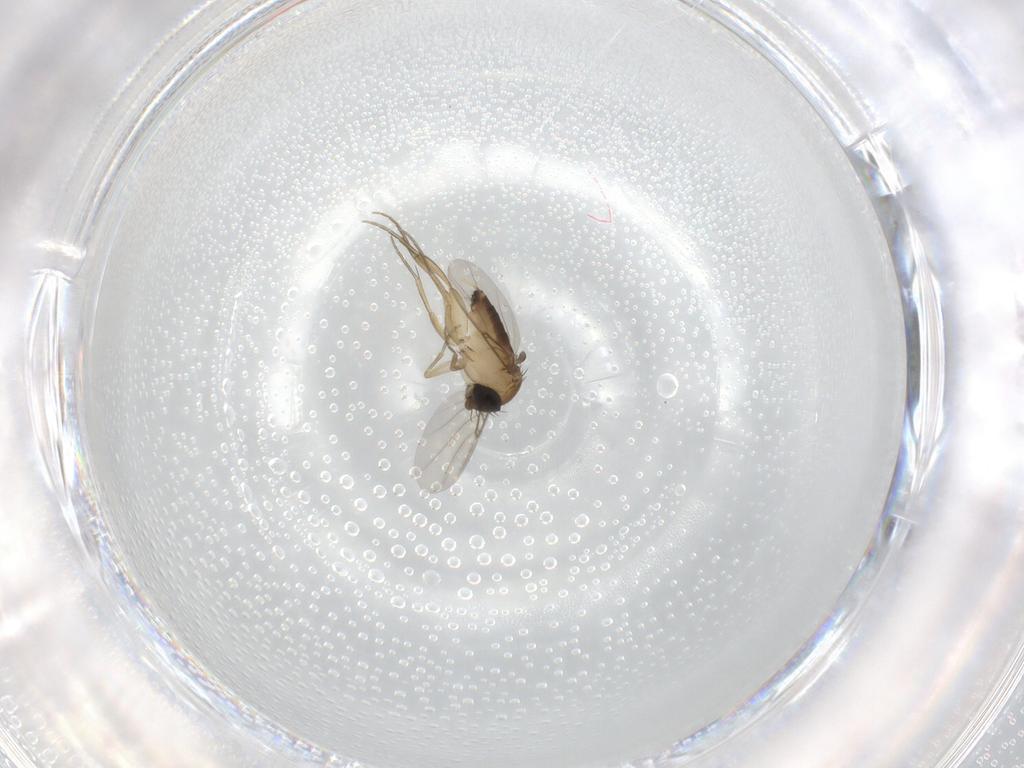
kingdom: Animalia
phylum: Arthropoda
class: Insecta
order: Diptera
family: Phoridae
